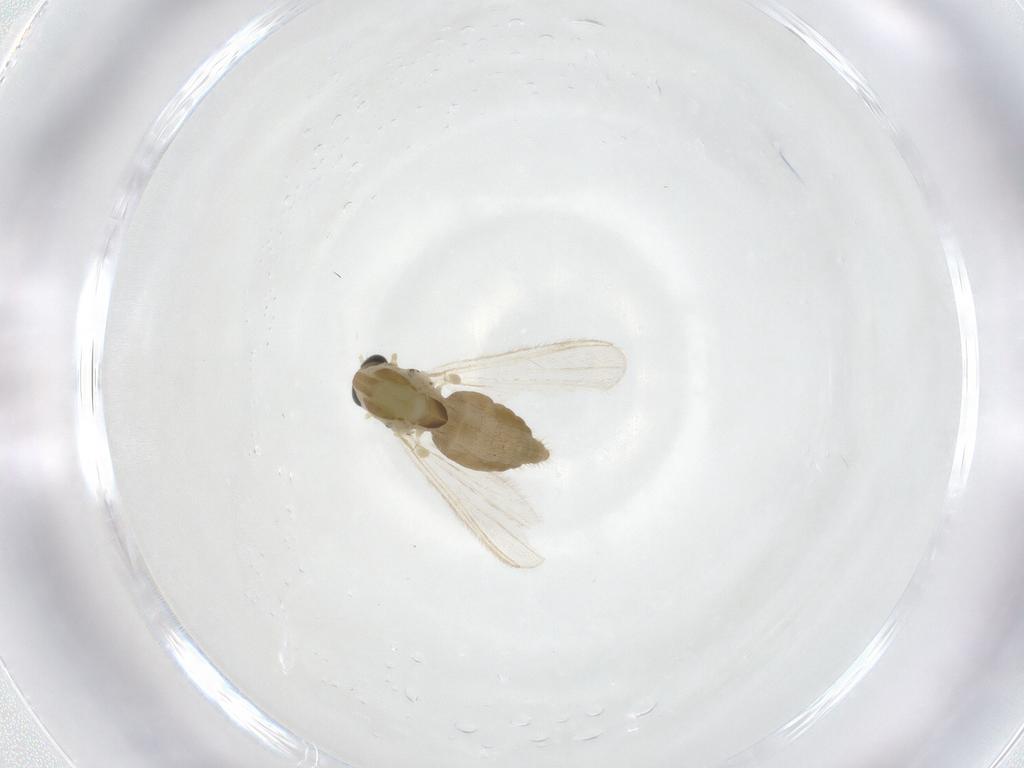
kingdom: Animalia
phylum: Arthropoda
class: Insecta
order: Diptera
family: Chironomidae
